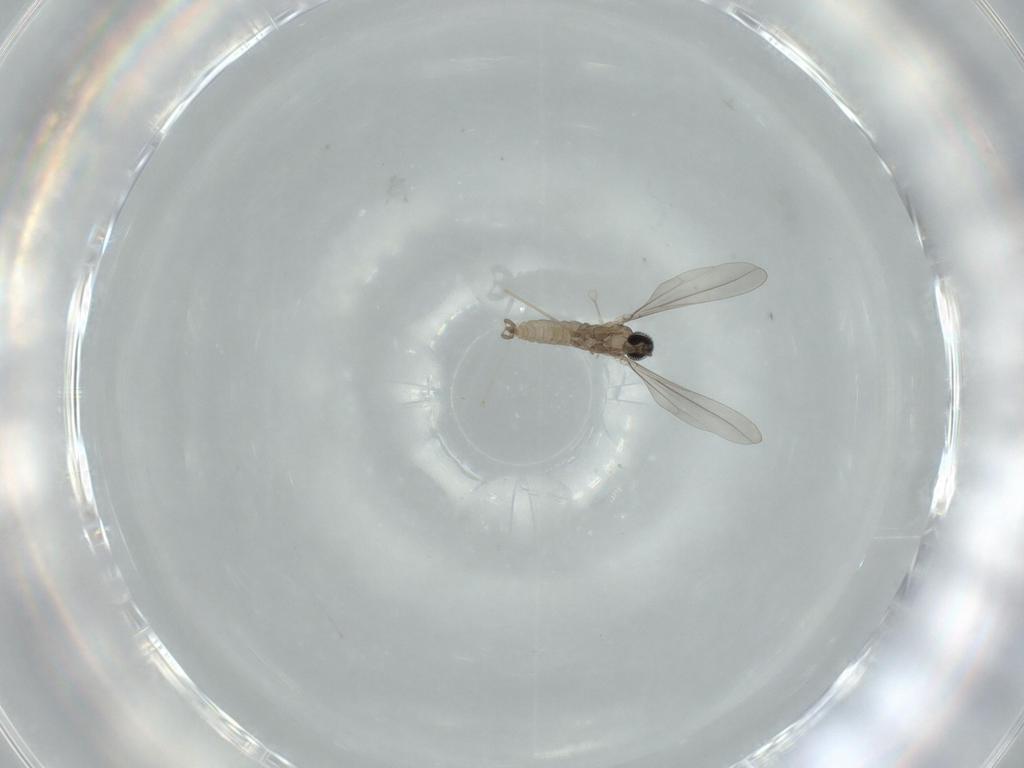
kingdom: Animalia
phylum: Arthropoda
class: Insecta
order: Diptera
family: Cecidomyiidae
